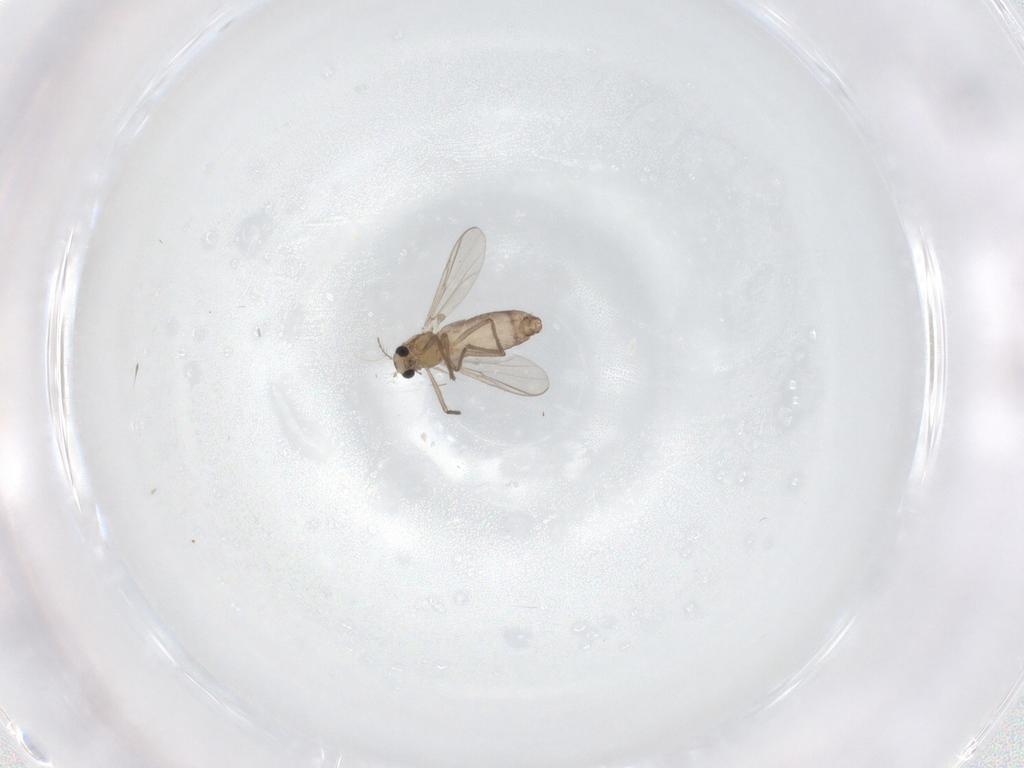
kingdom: Animalia
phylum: Arthropoda
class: Insecta
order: Diptera
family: Chironomidae
